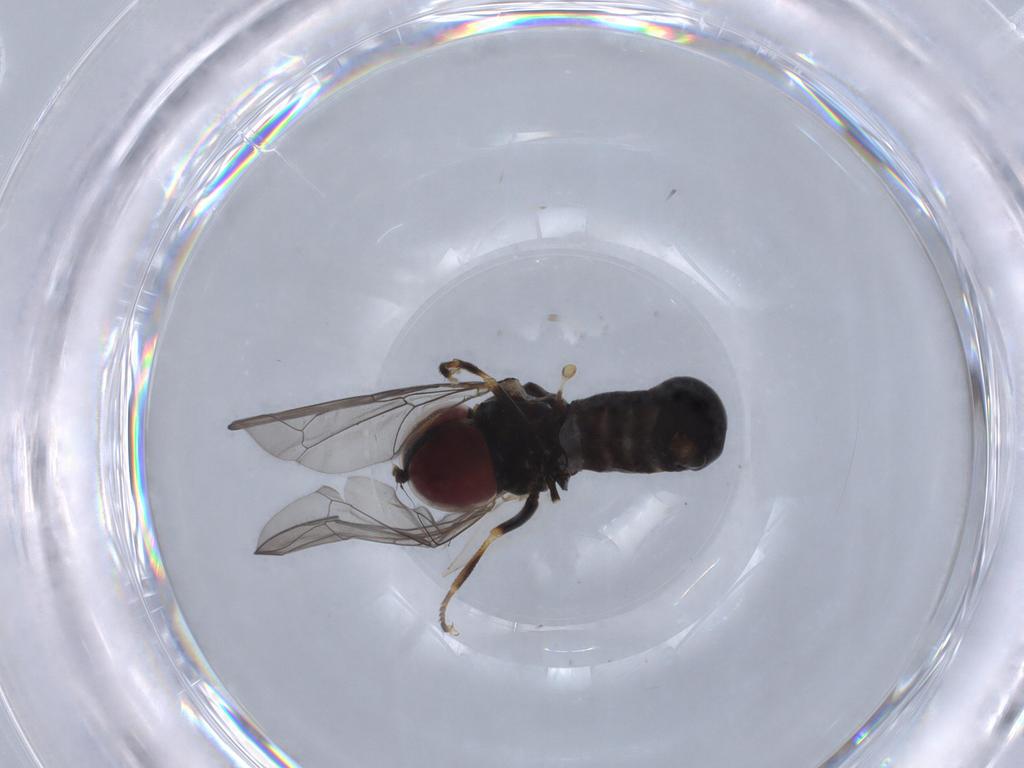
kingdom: Animalia
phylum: Arthropoda
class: Insecta
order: Diptera
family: Pipunculidae
